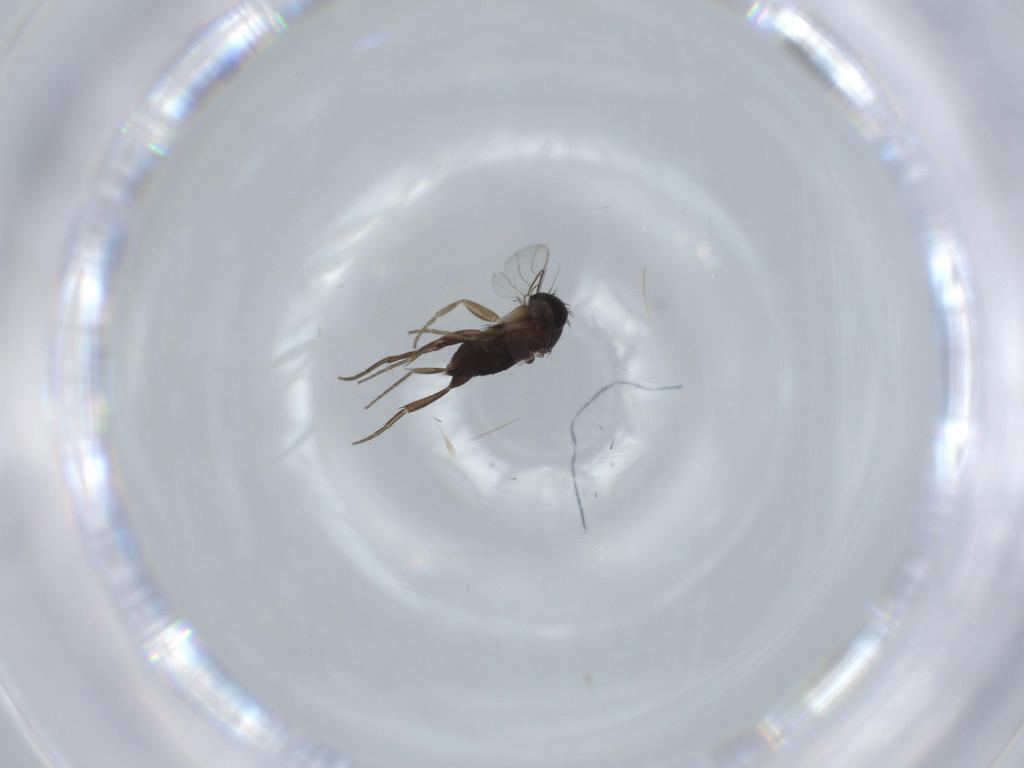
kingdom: Animalia
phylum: Arthropoda
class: Insecta
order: Diptera
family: Phoridae
